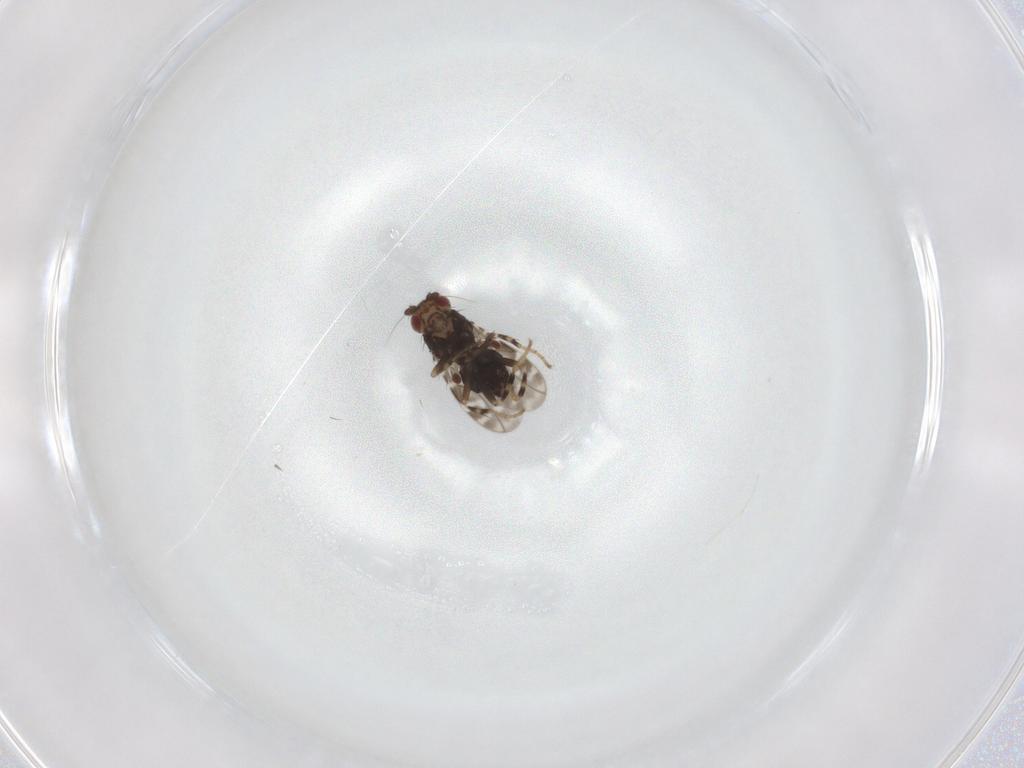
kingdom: Animalia
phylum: Arthropoda
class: Insecta
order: Diptera
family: Sphaeroceridae
